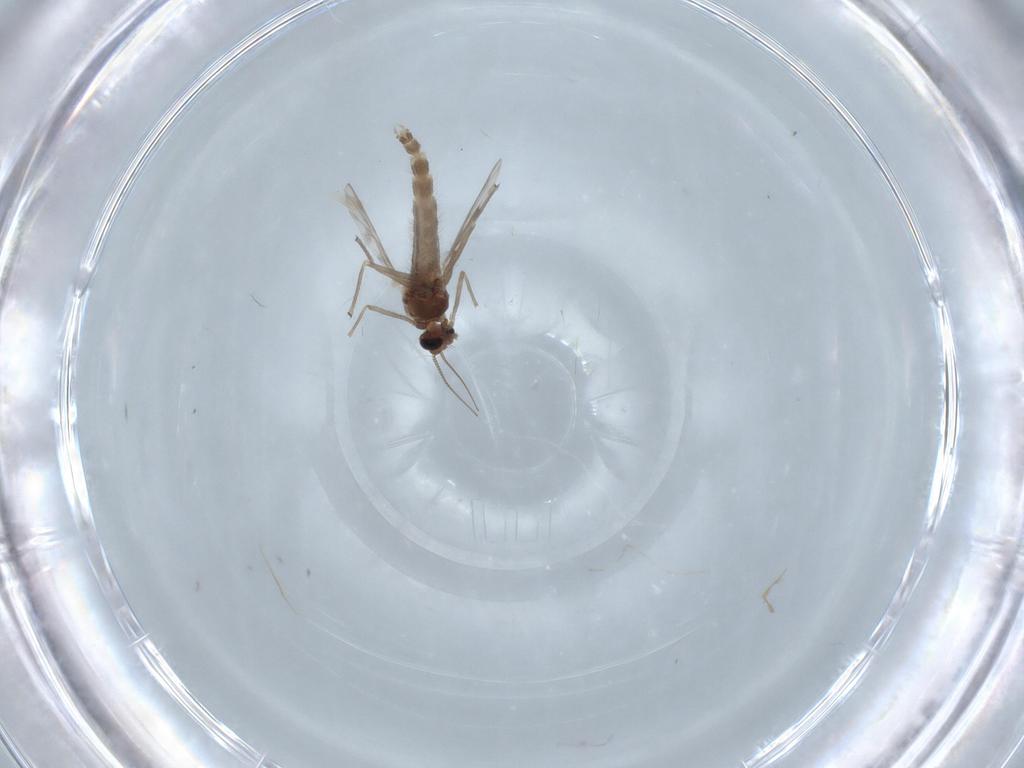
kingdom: Animalia
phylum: Arthropoda
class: Insecta
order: Diptera
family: Chironomidae
